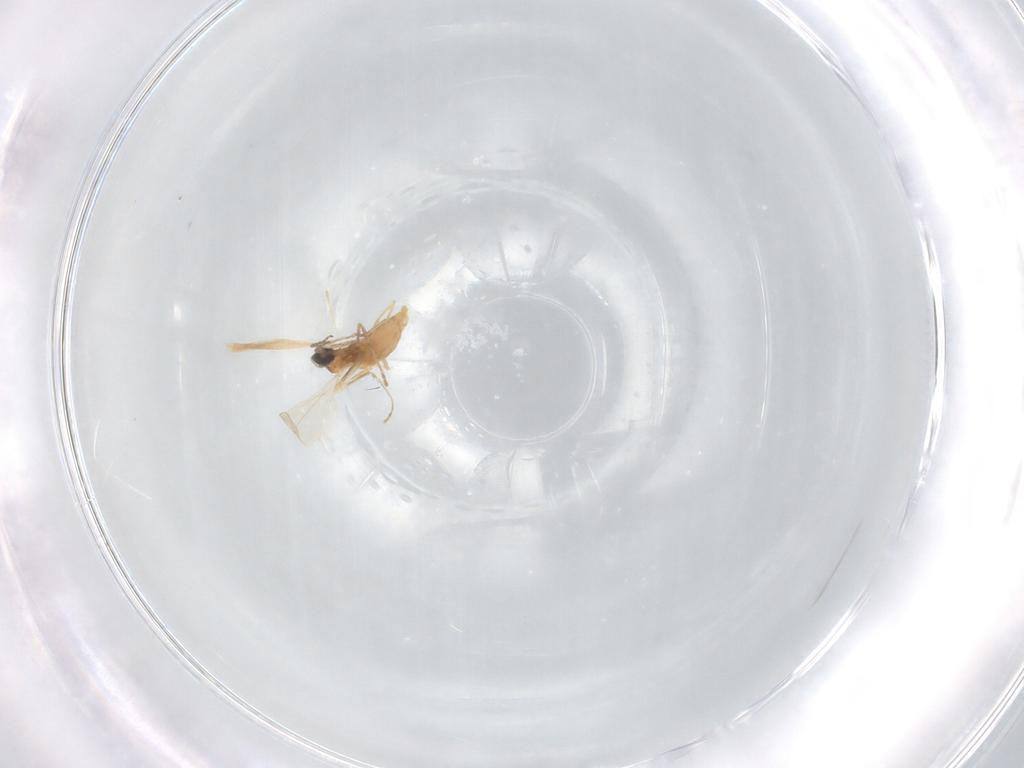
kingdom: Animalia
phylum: Arthropoda
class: Insecta
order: Diptera
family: Cecidomyiidae
